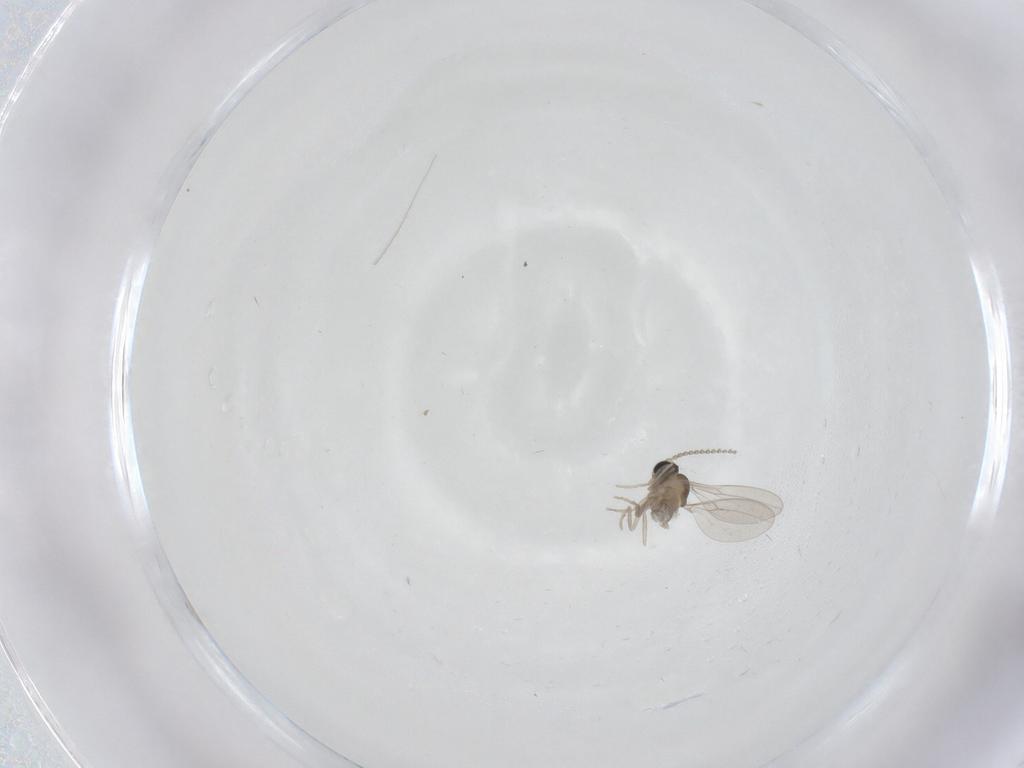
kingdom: Animalia
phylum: Arthropoda
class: Insecta
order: Diptera
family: Cecidomyiidae
